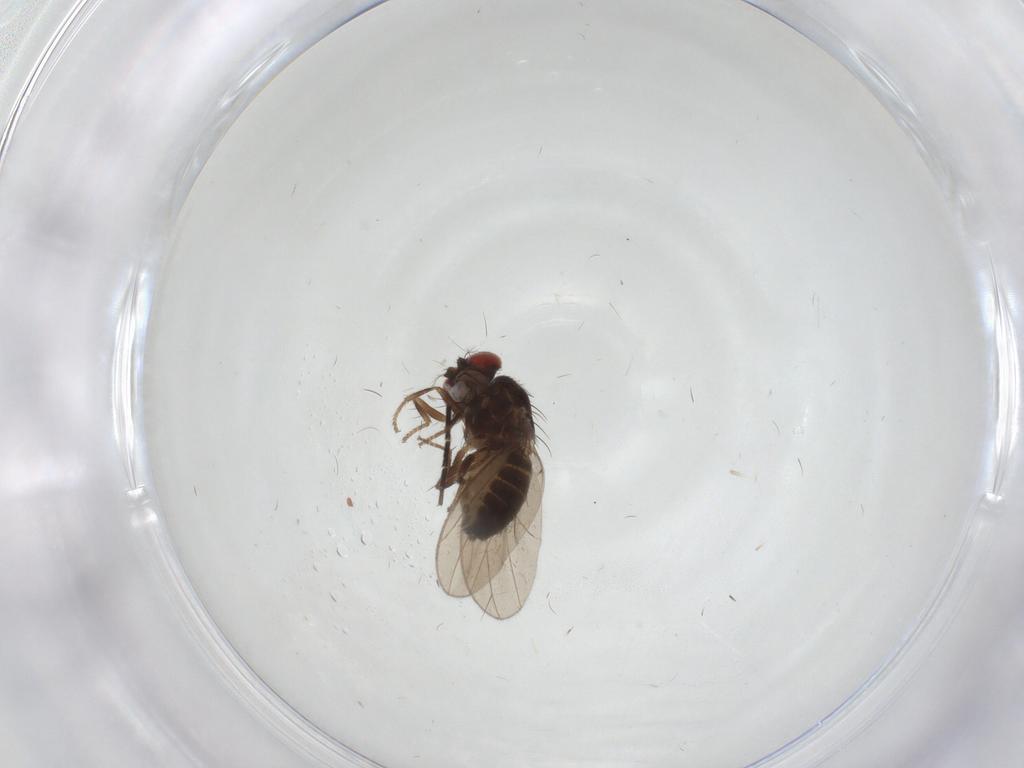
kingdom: Animalia
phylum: Arthropoda
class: Insecta
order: Diptera
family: Drosophilidae
